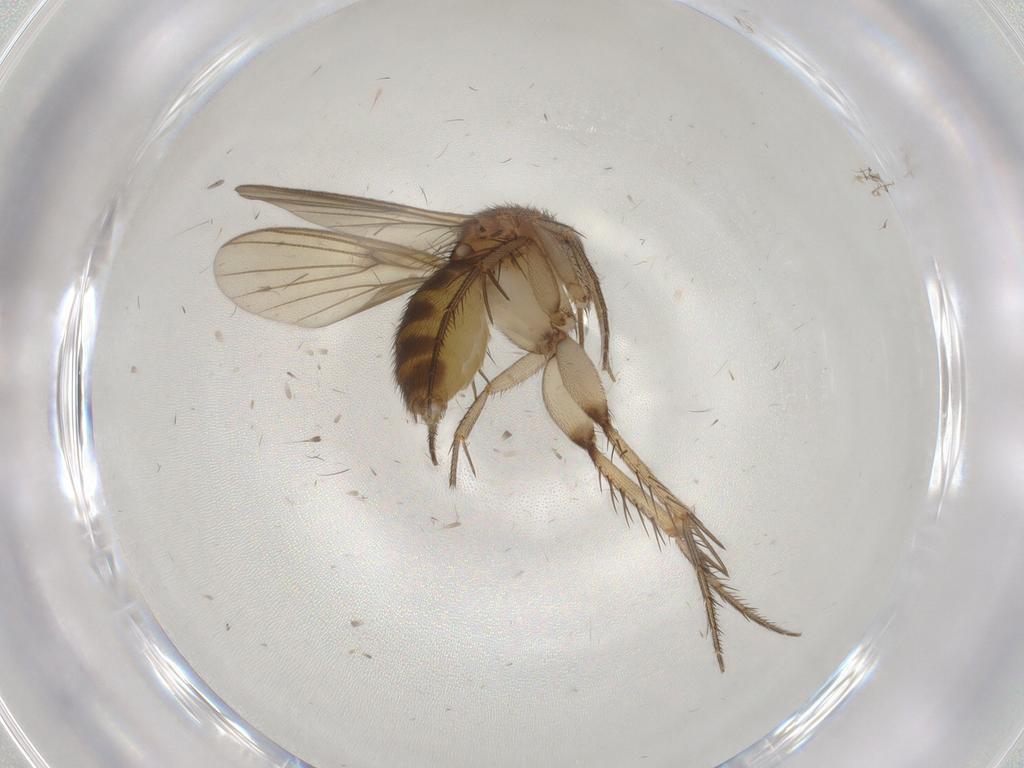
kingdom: Animalia
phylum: Arthropoda
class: Insecta
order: Diptera
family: Mycetophilidae
